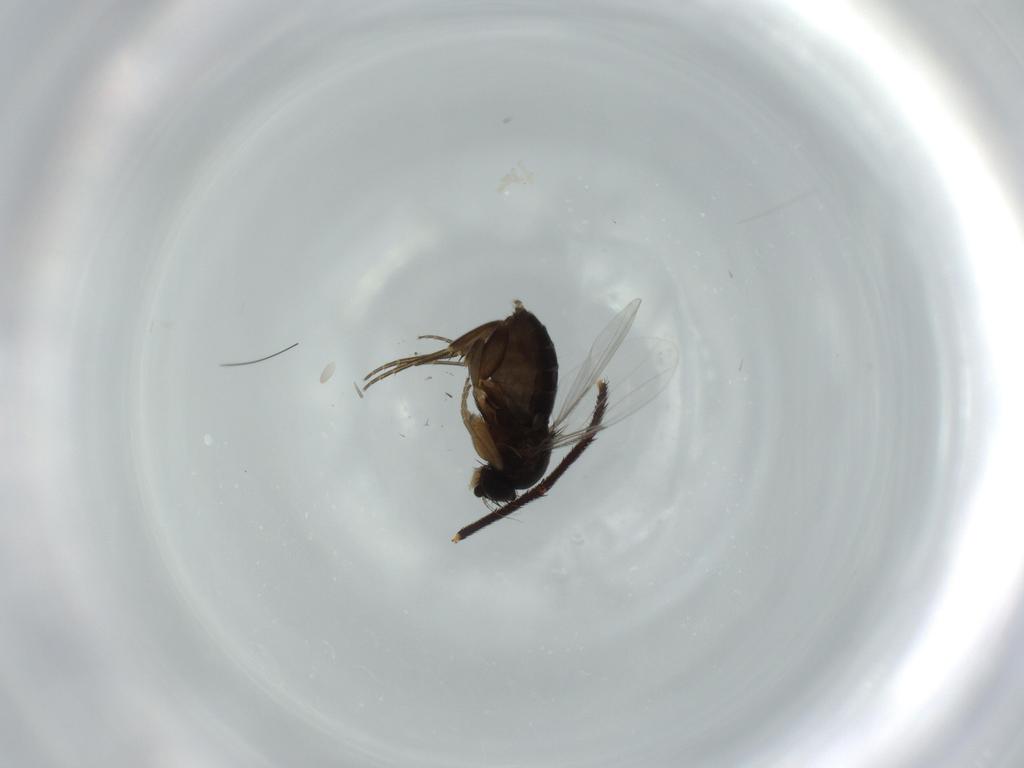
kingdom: Animalia
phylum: Arthropoda
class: Insecta
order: Diptera
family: Phoridae
